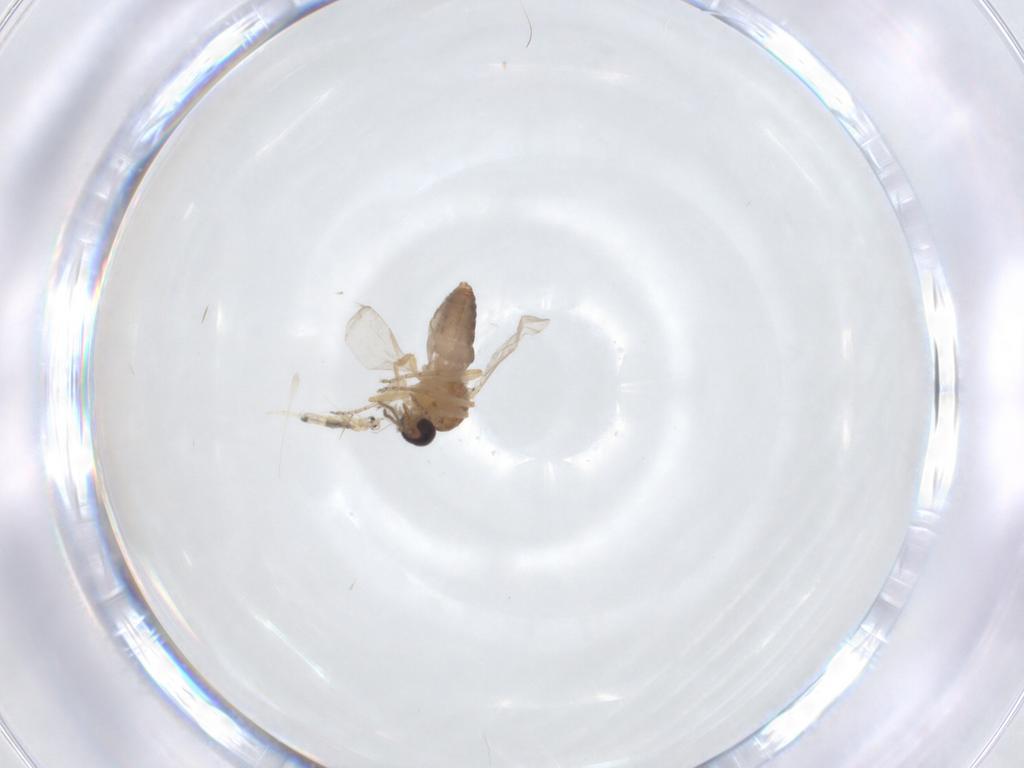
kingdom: Animalia
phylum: Arthropoda
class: Insecta
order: Diptera
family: Ceratopogonidae
